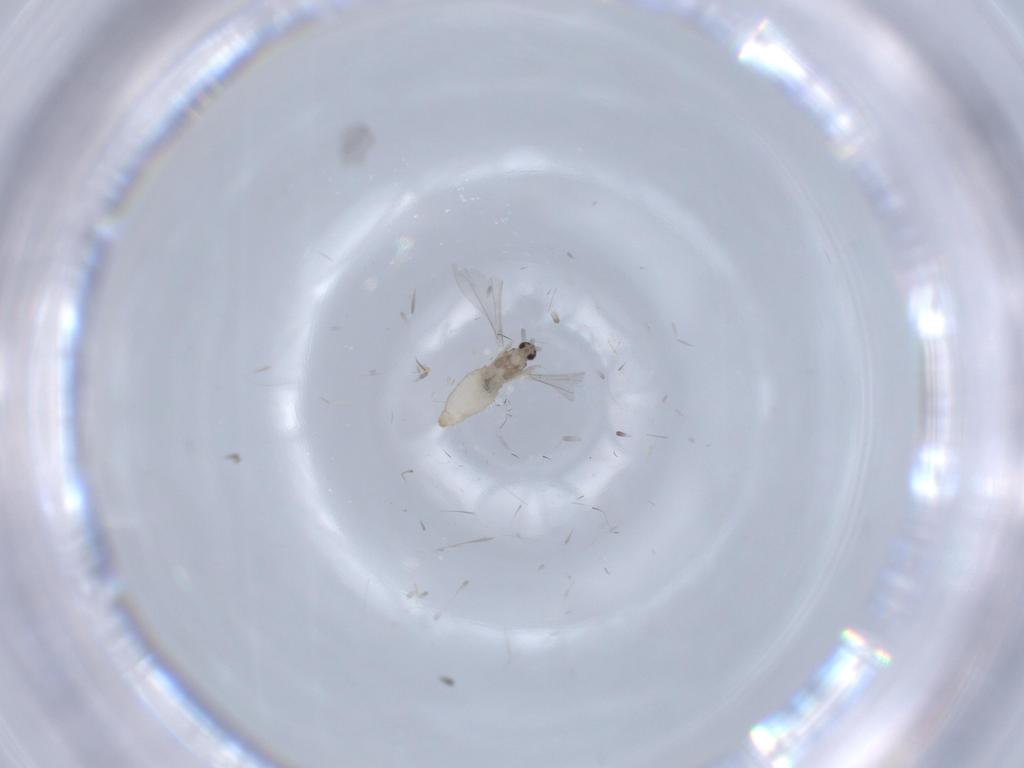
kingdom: Animalia
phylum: Arthropoda
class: Insecta
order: Diptera
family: Cecidomyiidae
